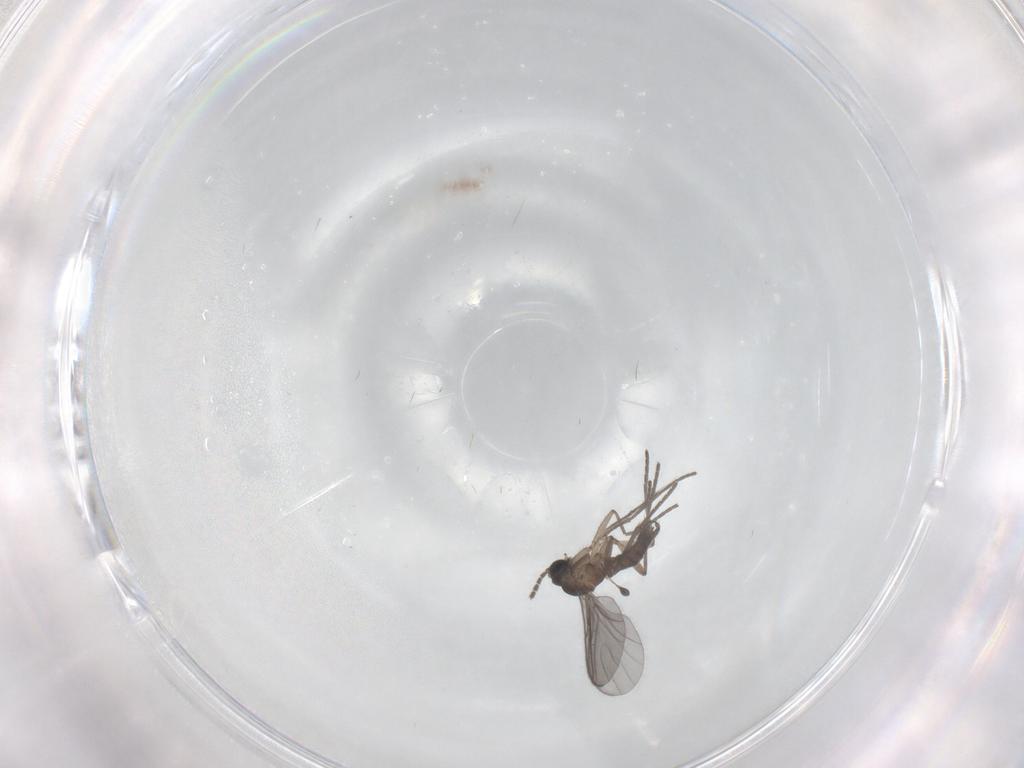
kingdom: Animalia
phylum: Arthropoda
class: Insecta
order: Diptera
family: Sciaridae
